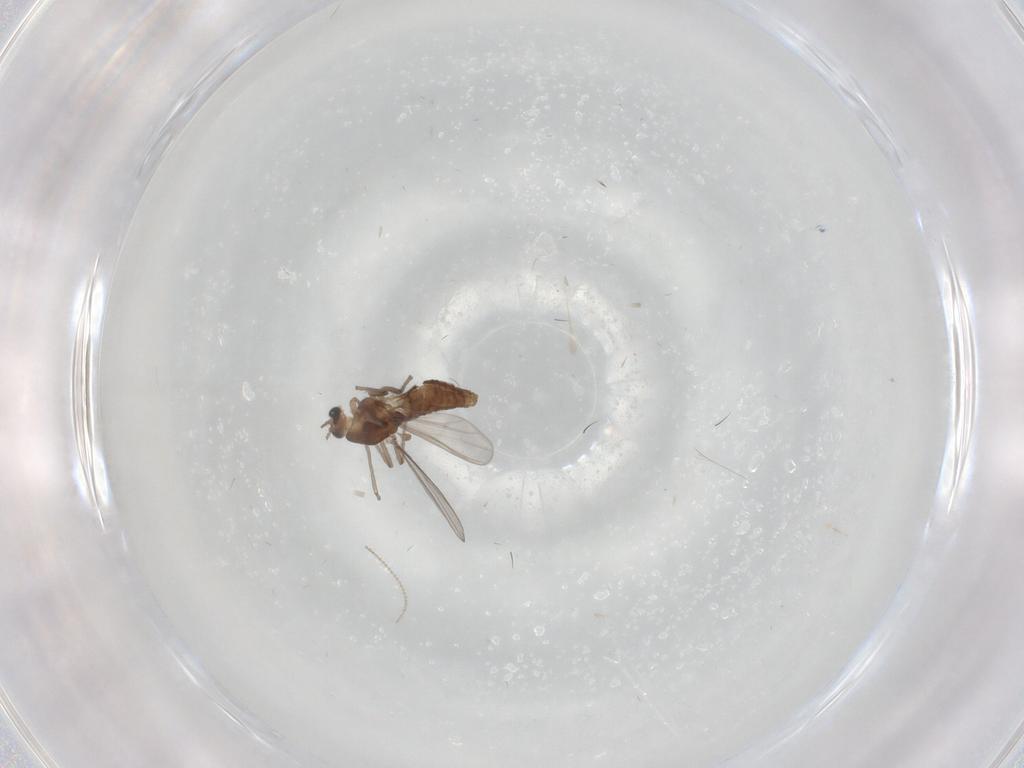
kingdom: Animalia
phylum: Arthropoda
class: Insecta
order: Diptera
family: Chironomidae
